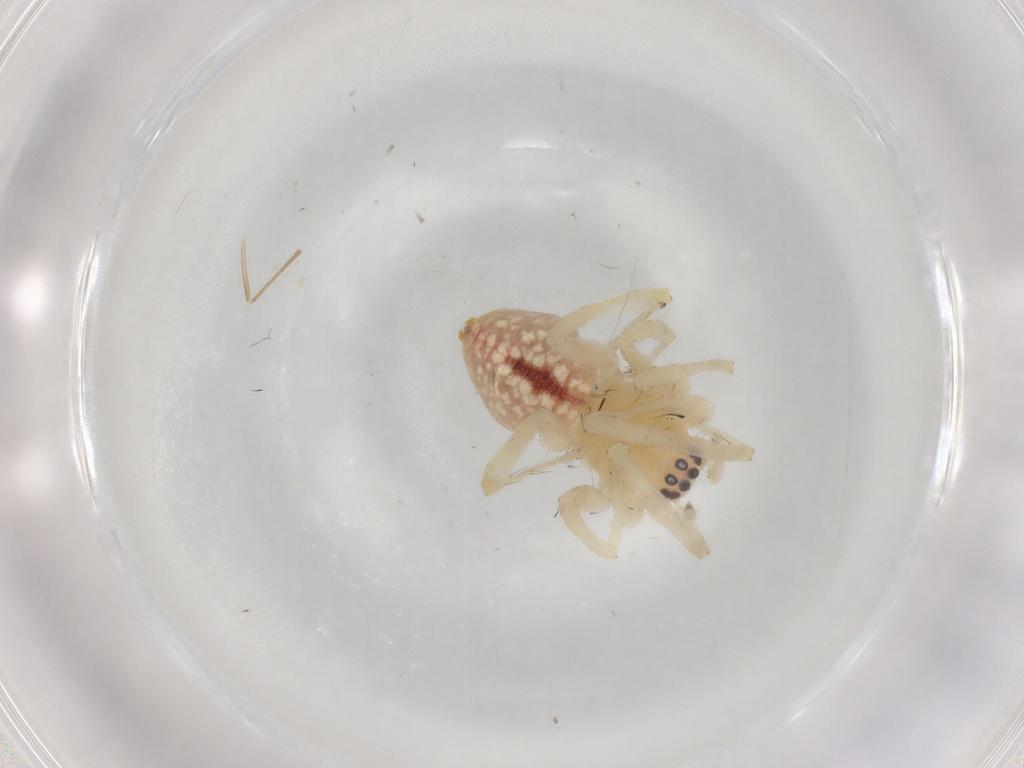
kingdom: Animalia
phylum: Arthropoda
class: Arachnida
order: Araneae
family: Cheiracanthiidae
